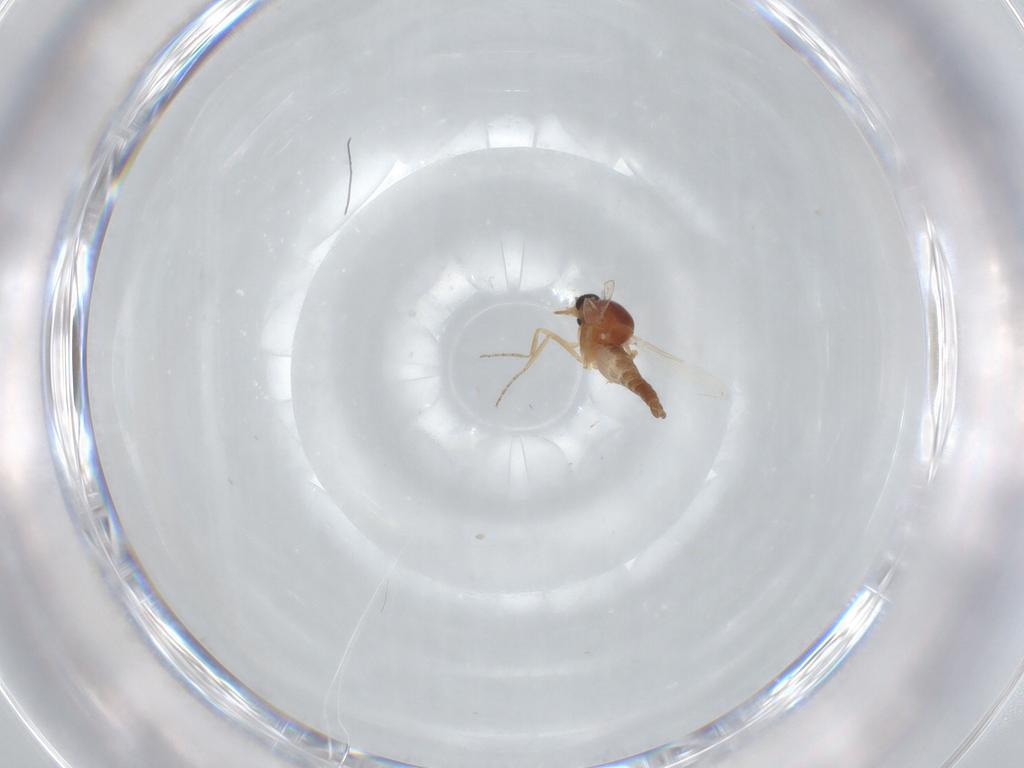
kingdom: Animalia
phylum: Arthropoda
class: Insecta
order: Diptera
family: Ceratopogonidae
